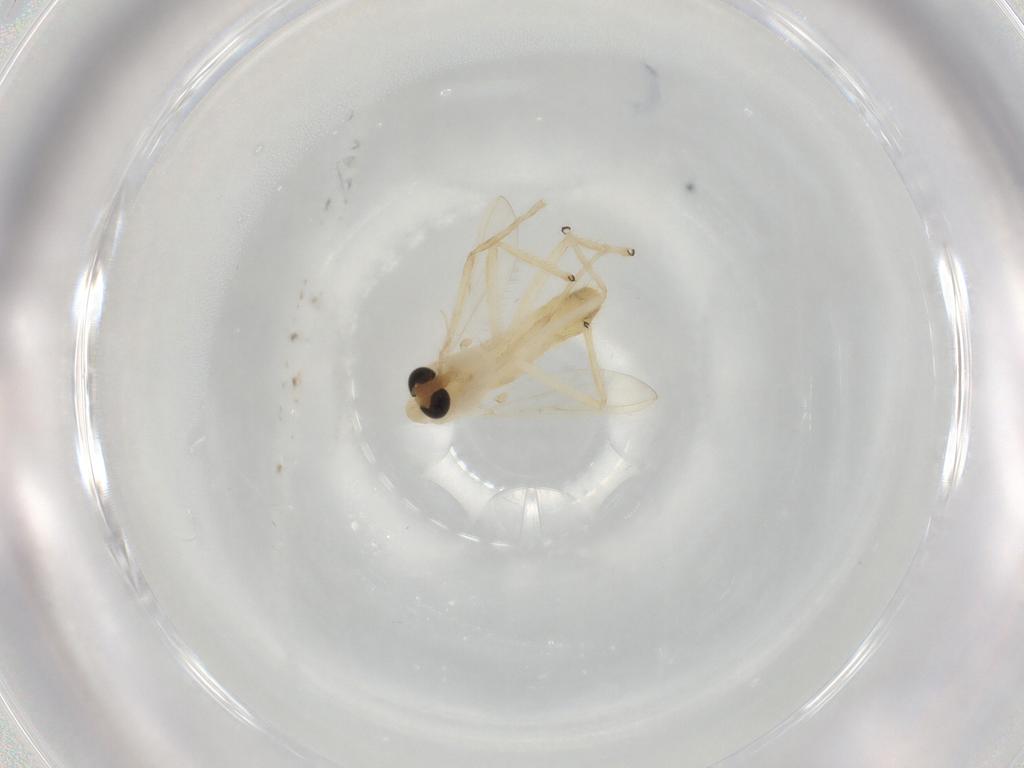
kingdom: Animalia
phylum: Arthropoda
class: Insecta
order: Diptera
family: Chironomidae
